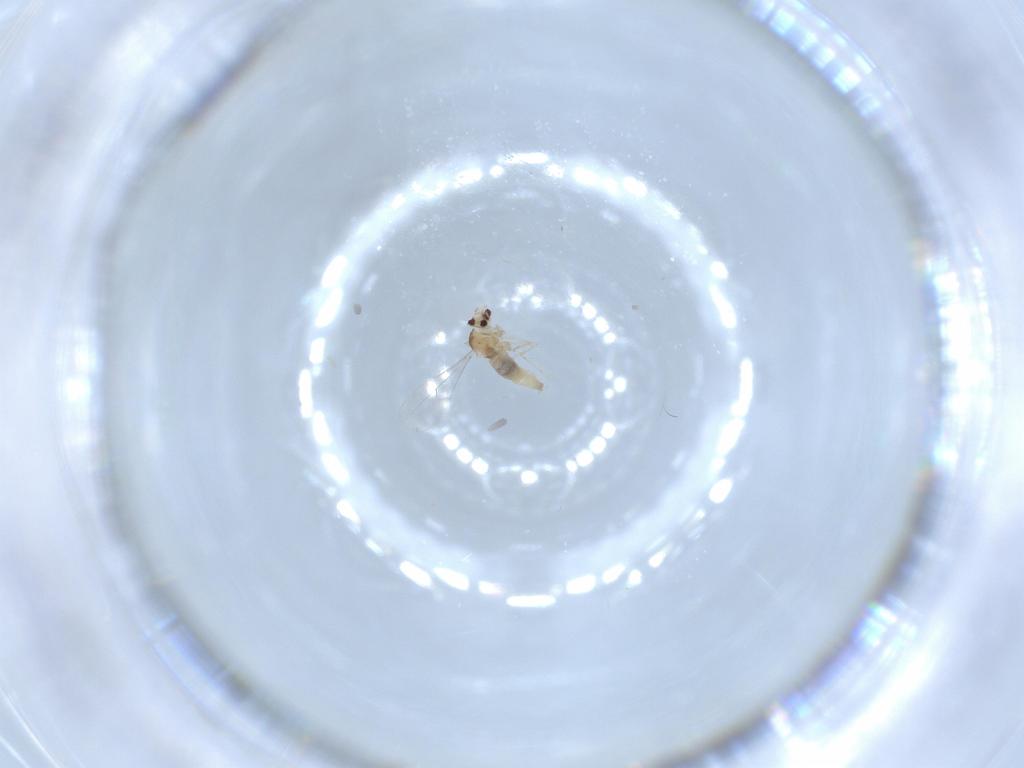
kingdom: Animalia
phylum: Arthropoda
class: Insecta
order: Diptera
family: Cecidomyiidae
